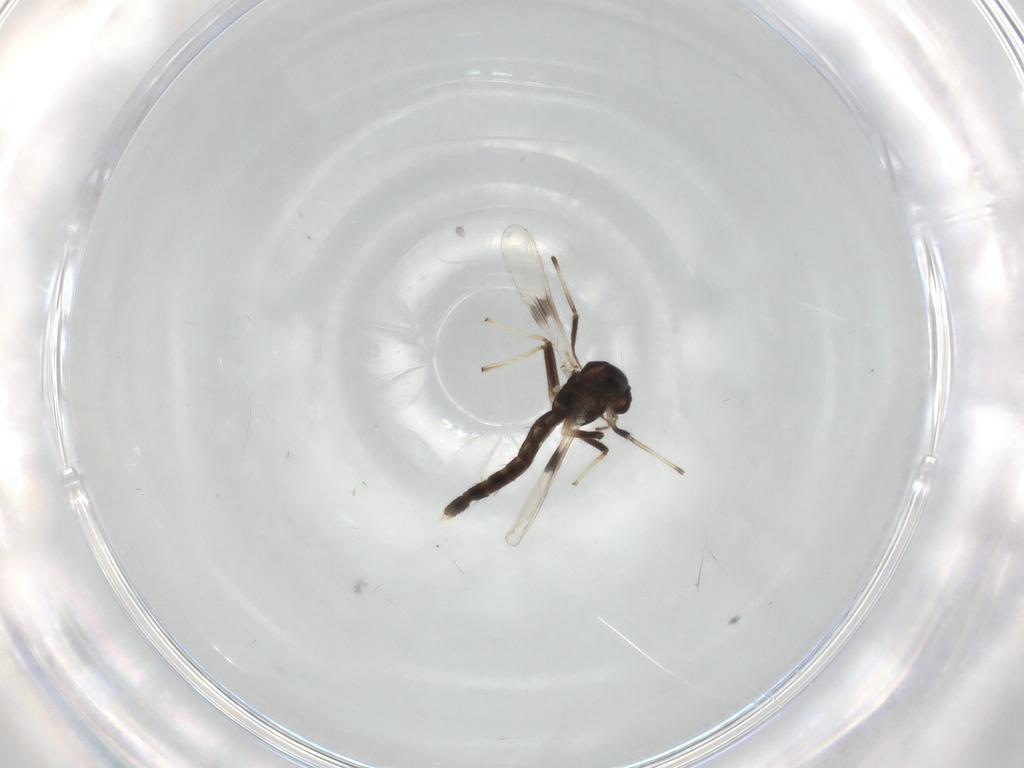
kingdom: Animalia
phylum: Arthropoda
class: Insecta
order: Diptera
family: Chironomidae
